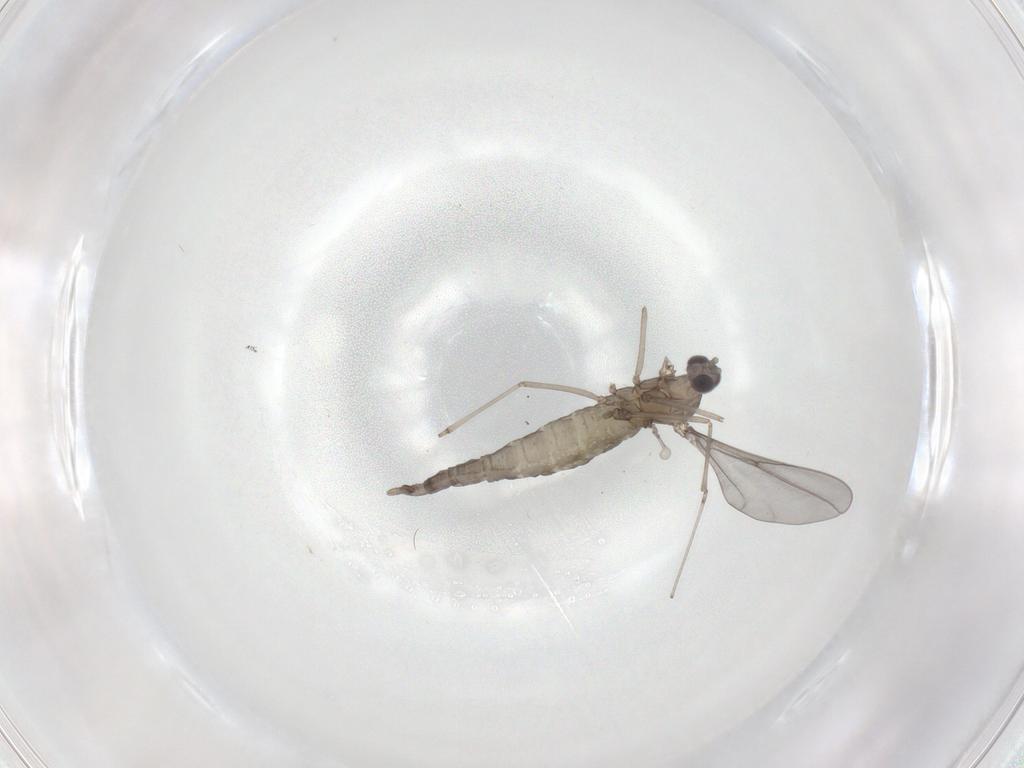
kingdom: Animalia
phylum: Arthropoda
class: Insecta
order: Diptera
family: Cecidomyiidae
